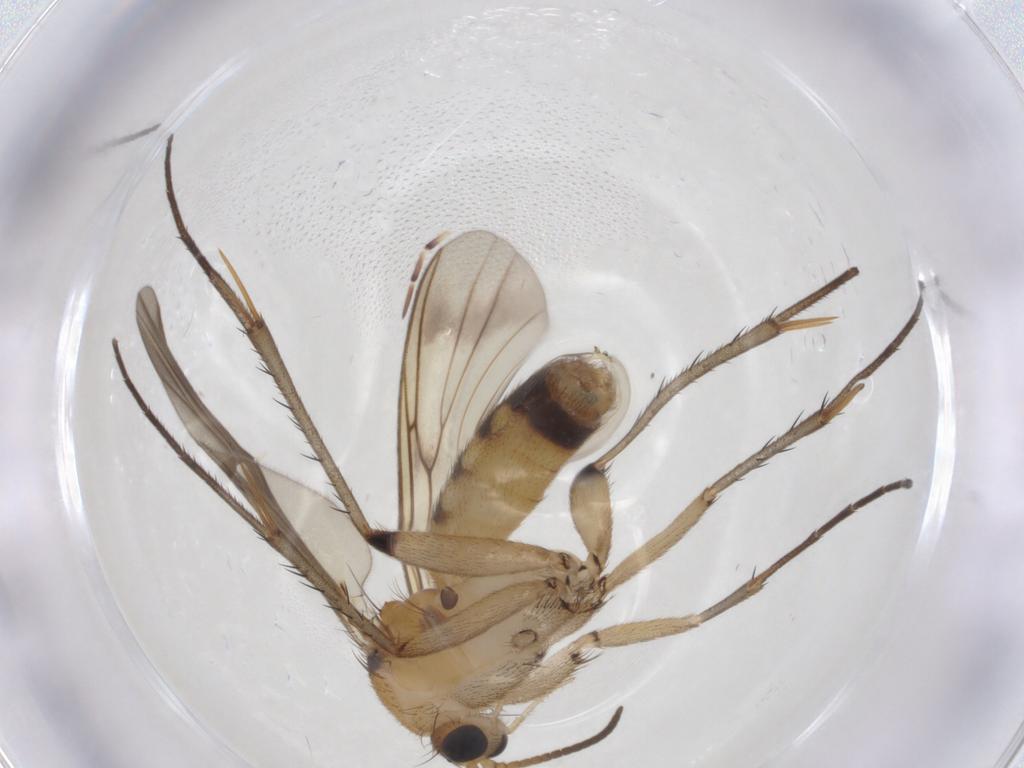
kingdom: Animalia
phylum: Arthropoda
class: Insecta
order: Diptera
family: Mycetophilidae
